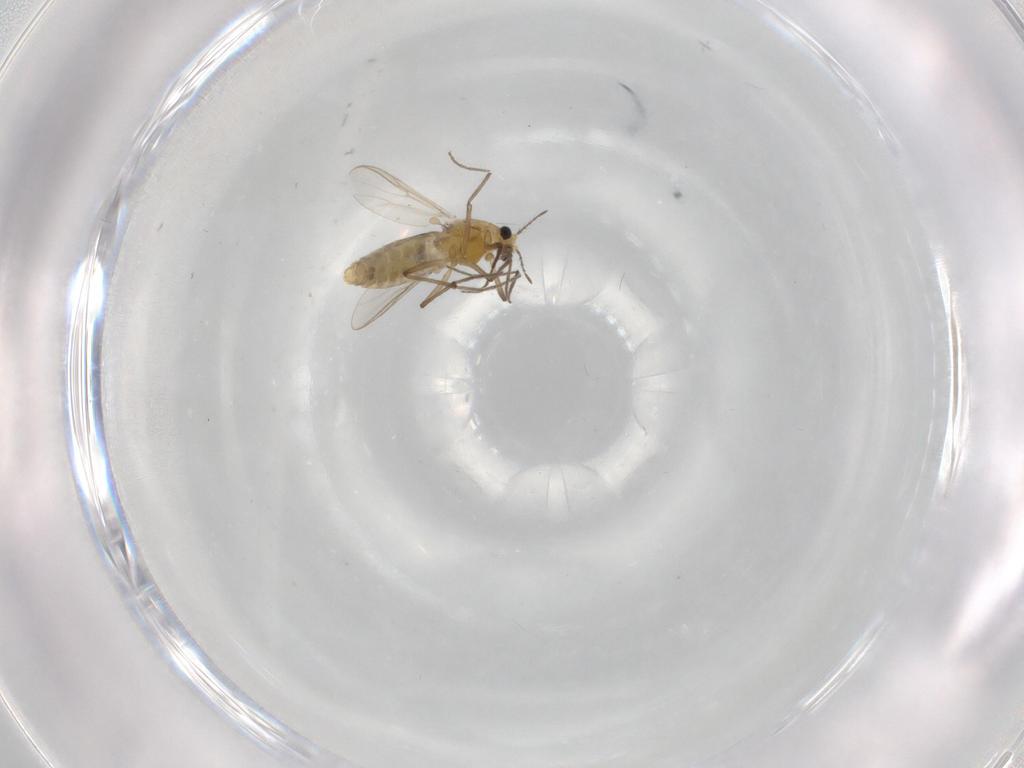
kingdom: Animalia
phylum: Arthropoda
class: Insecta
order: Diptera
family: Chironomidae
